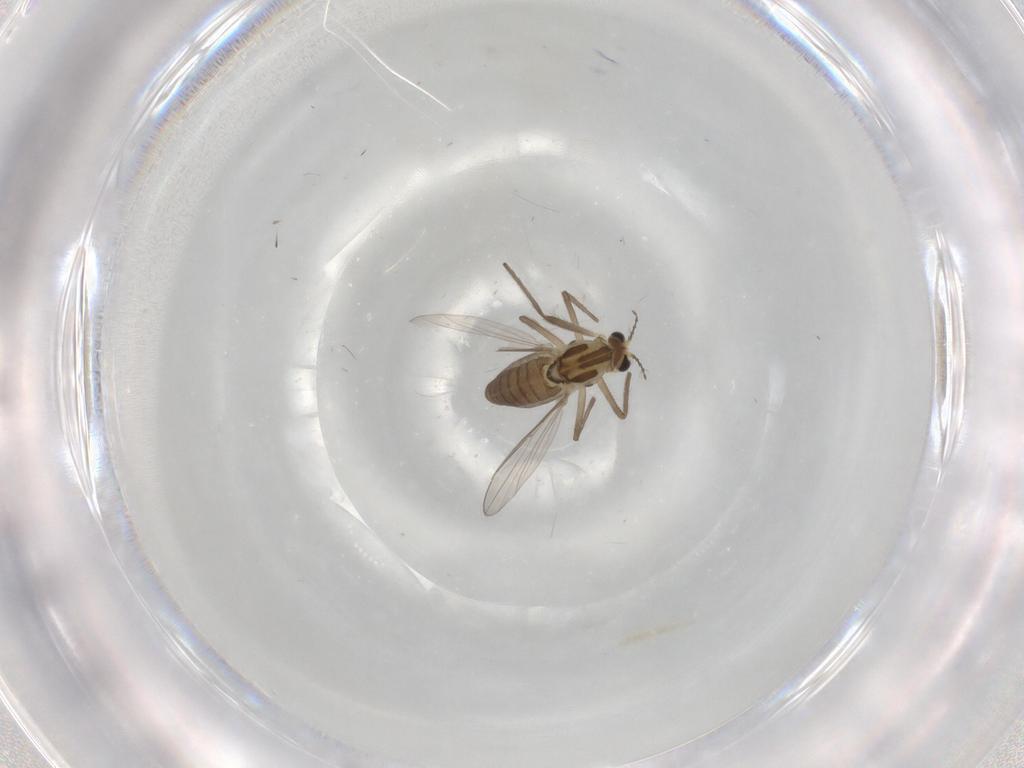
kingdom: Animalia
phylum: Arthropoda
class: Insecta
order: Diptera
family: Chironomidae
